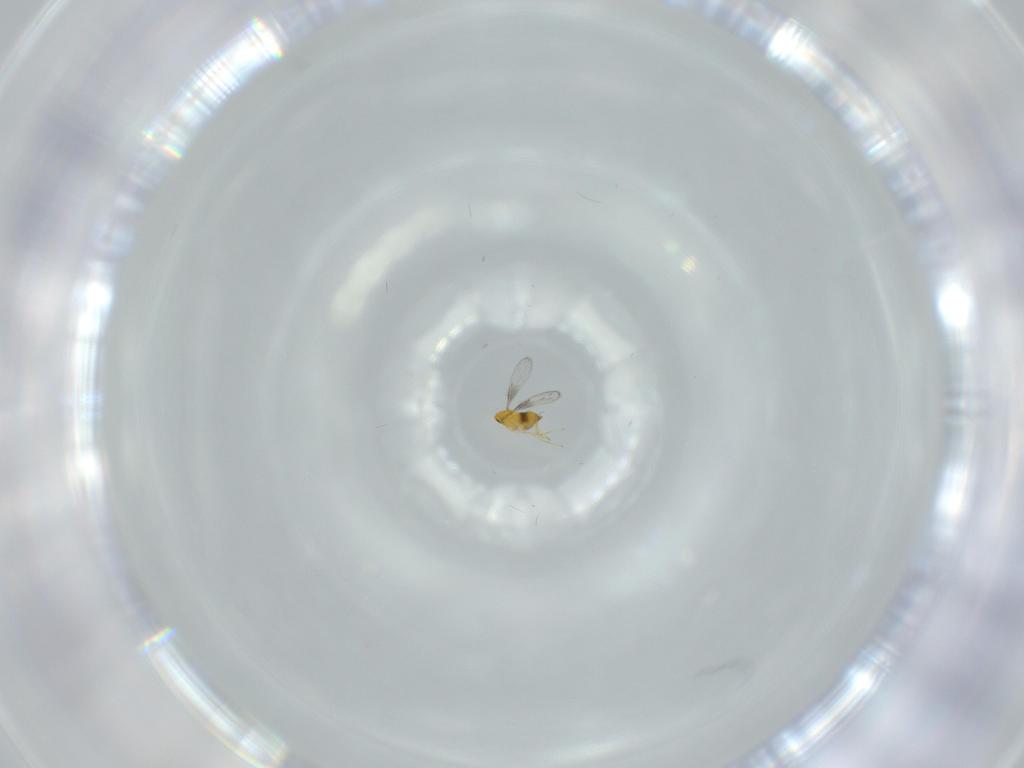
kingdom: Animalia
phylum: Arthropoda
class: Insecta
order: Hymenoptera
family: Trichogrammatidae
